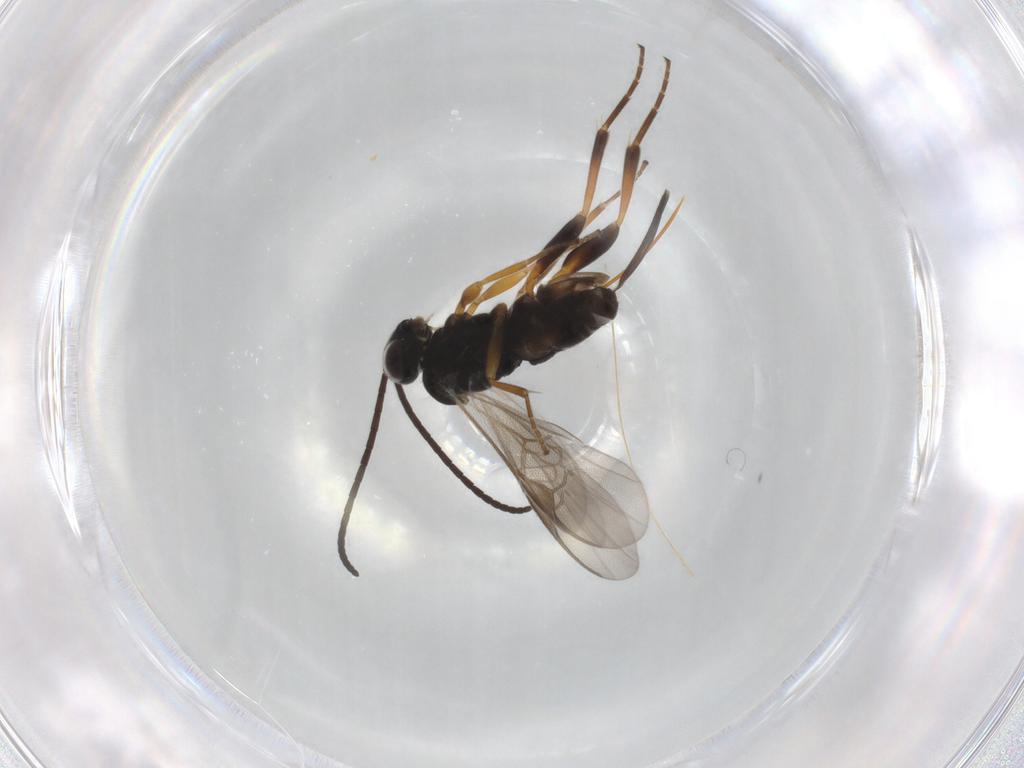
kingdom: Animalia
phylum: Arthropoda
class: Insecta
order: Hymenoptera
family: Braconidae
